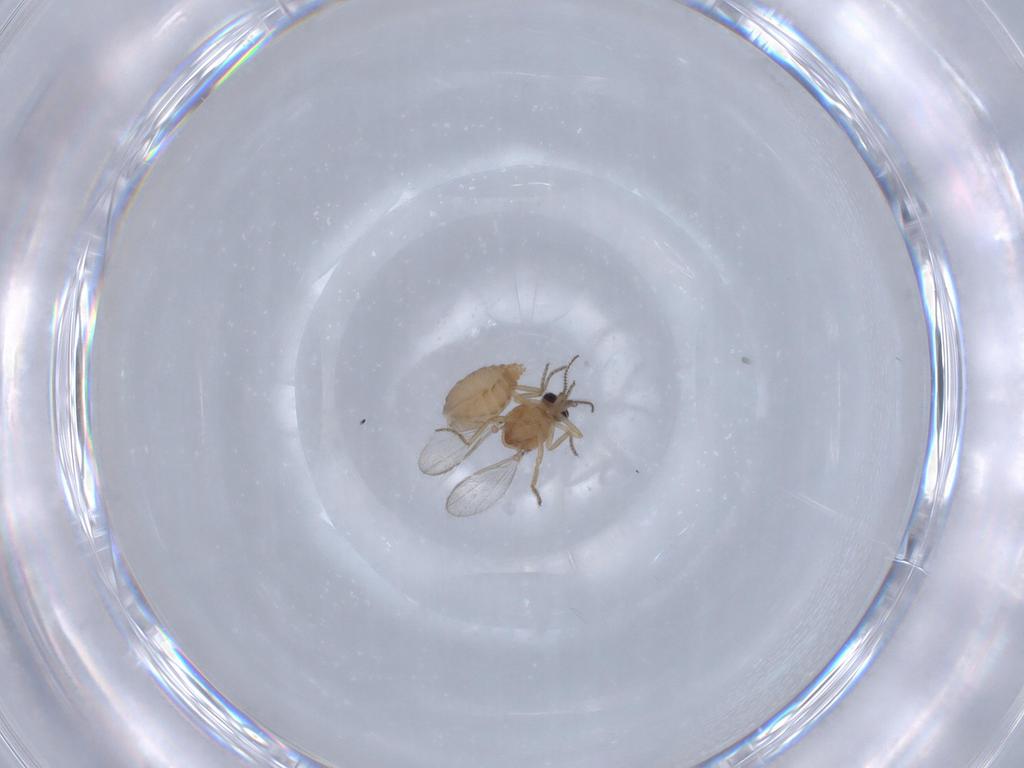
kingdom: Animalia
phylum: Arthropoda
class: Insecta
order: Diptera
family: Ceratopogonidae
